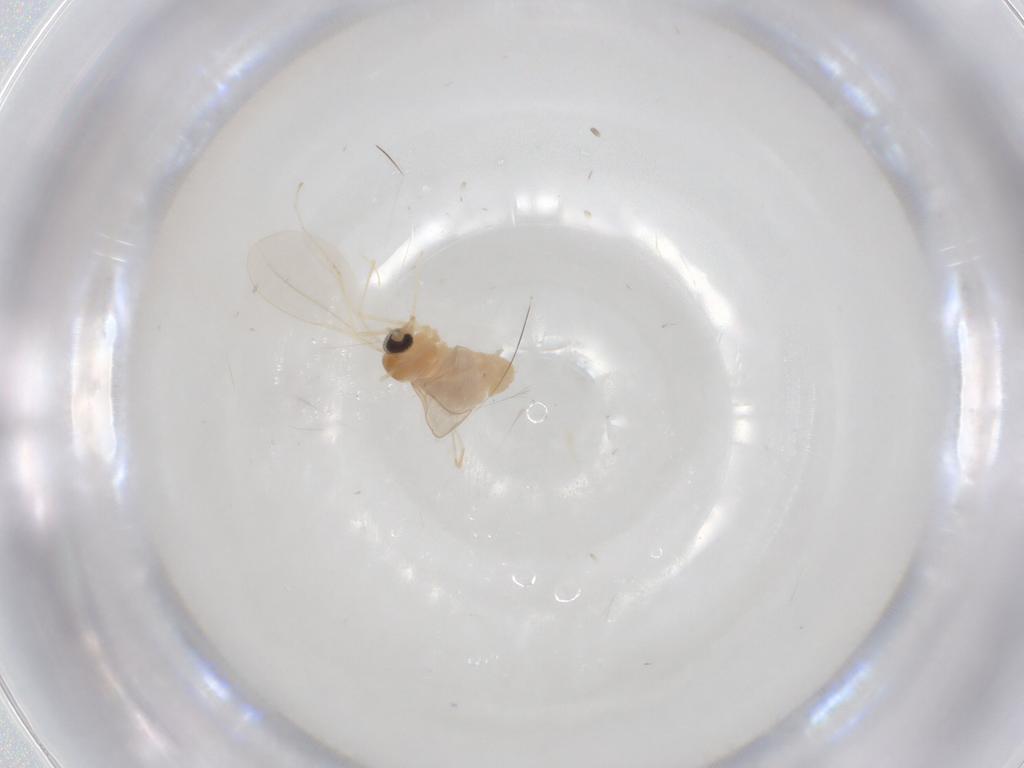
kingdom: Animalia
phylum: Arthropoda
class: Insecta
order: Diptera
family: Cecidomyiidae
